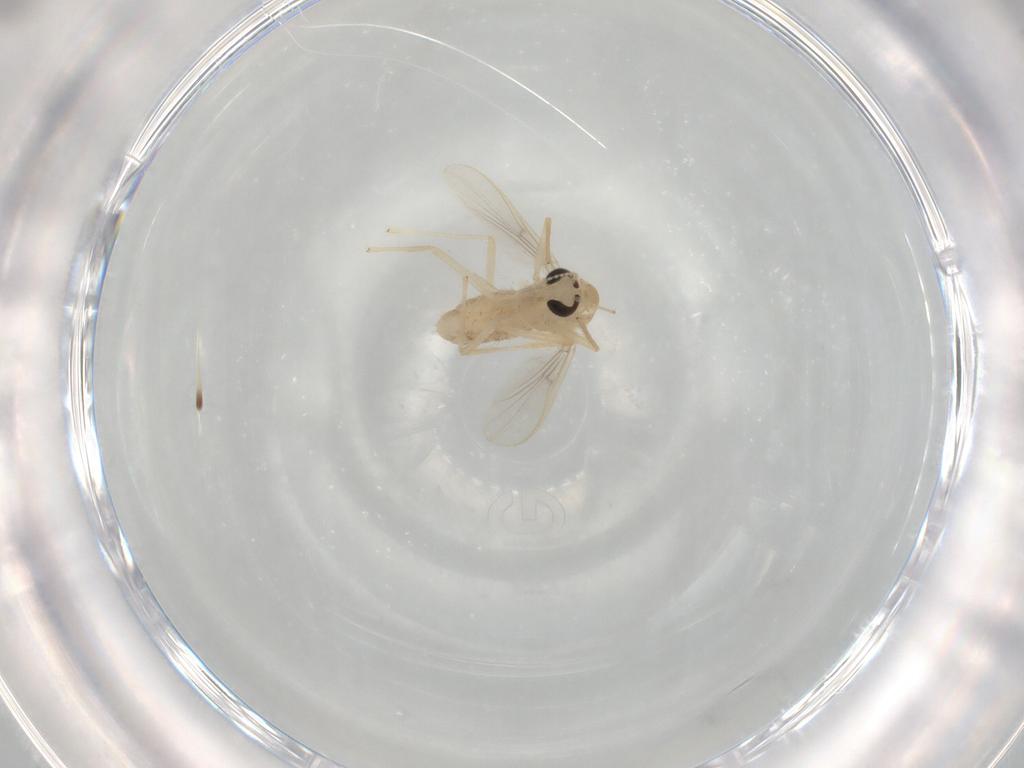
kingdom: Animalia
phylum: Arthropoda
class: Insecta
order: Diptera
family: Chironomidae
